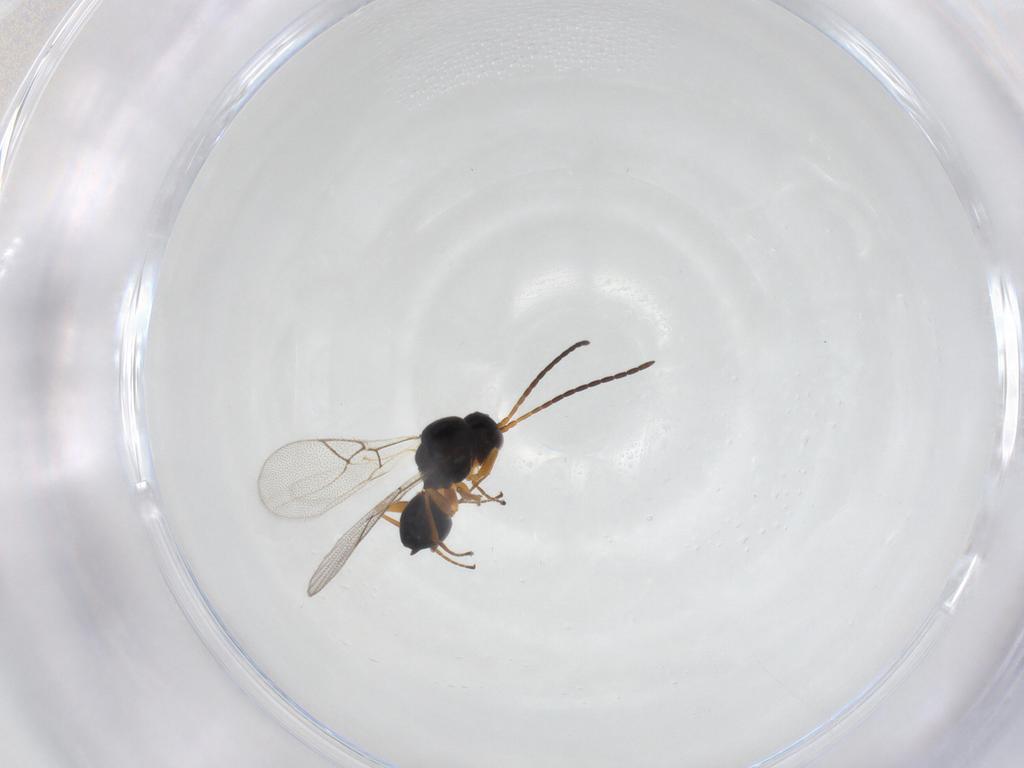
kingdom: Animalia
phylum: Arthropoda
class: Insecta
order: Hymenoptera
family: Figitidae
